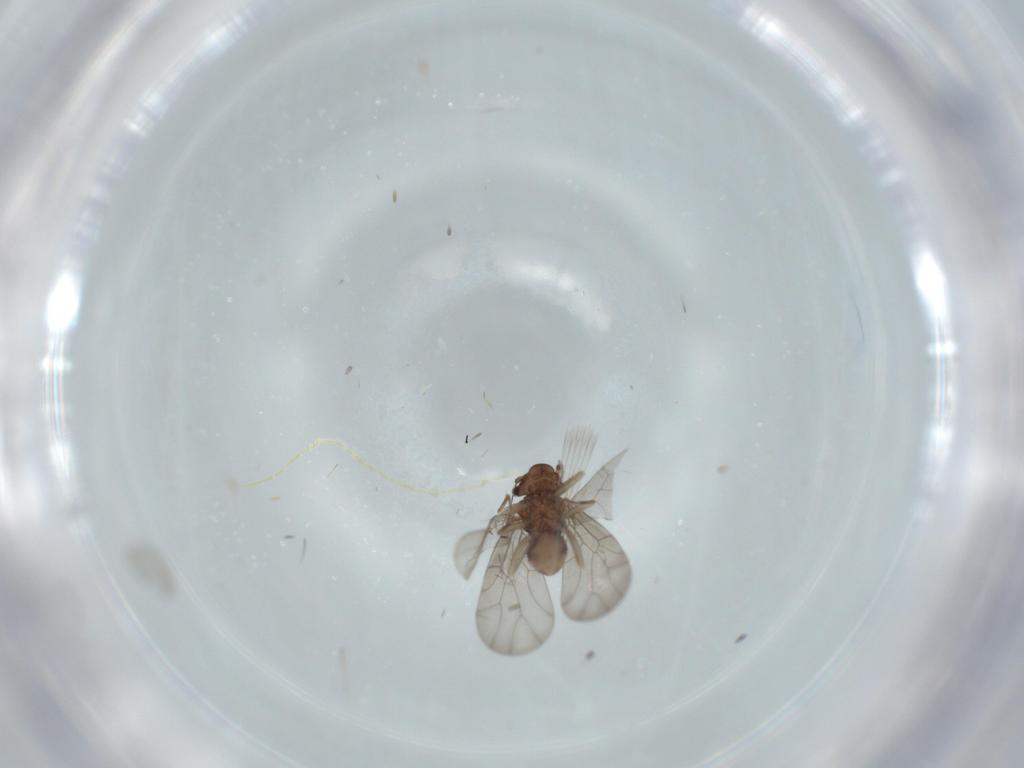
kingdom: Animalia
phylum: Arthropoda
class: Insecta
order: Psocodea
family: Lepidopsocidae
